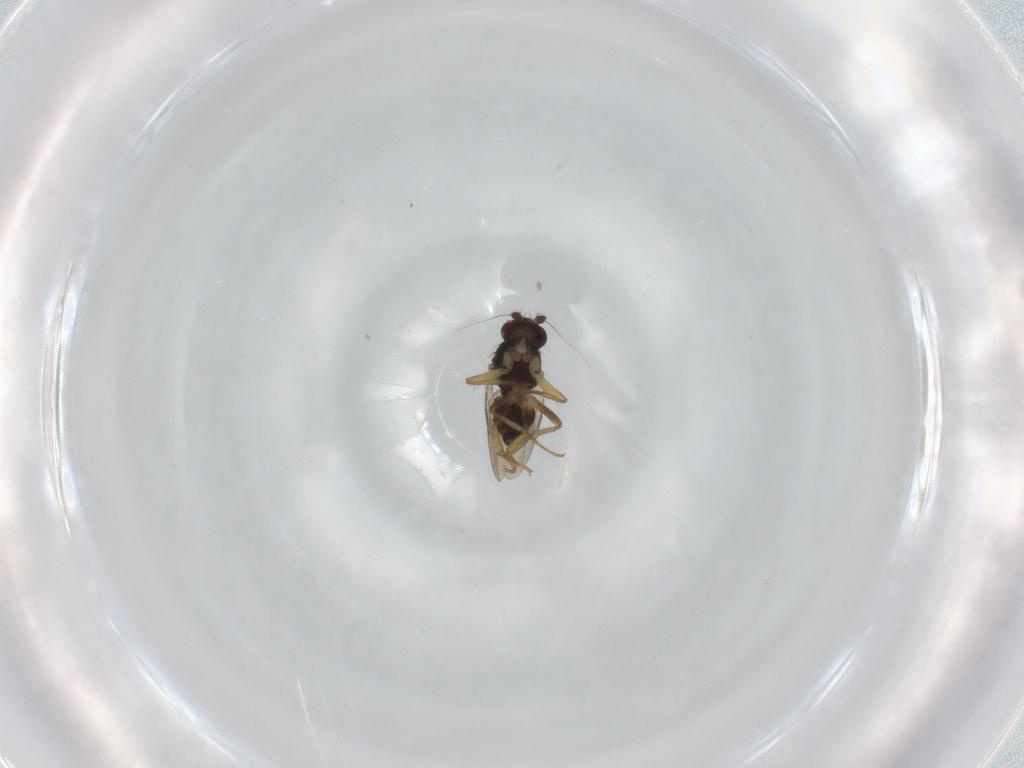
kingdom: Animalia
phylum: Arthropoda
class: Insecta
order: Diptera
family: Sphaeroceridae
